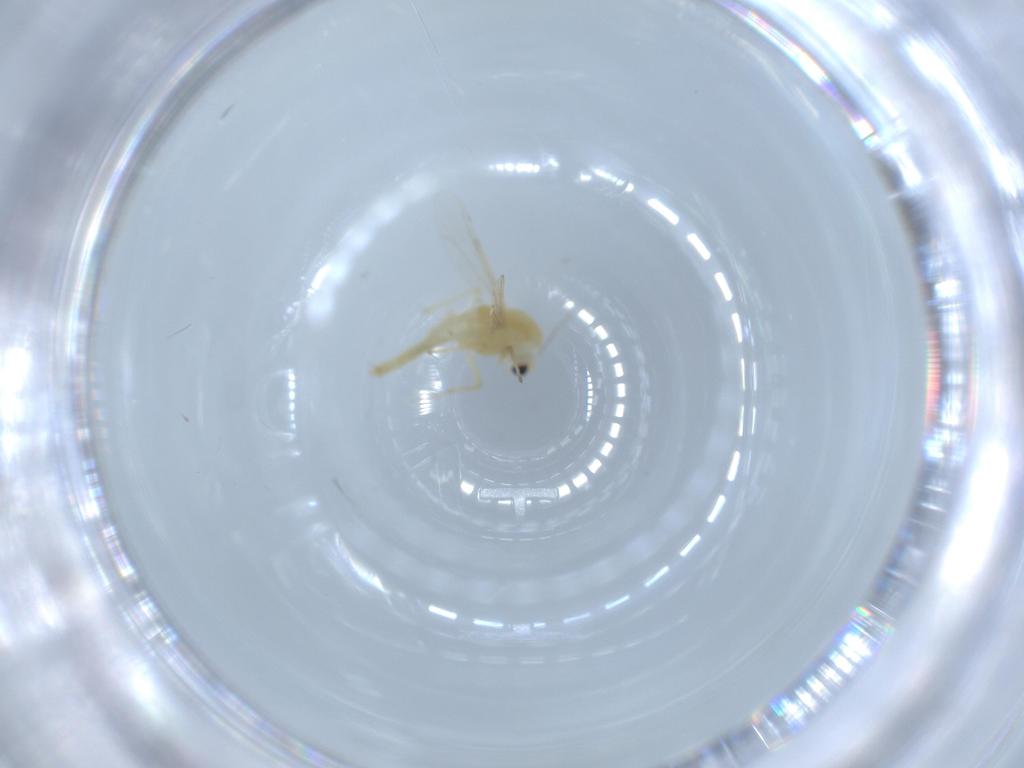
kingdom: Animalia
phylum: Arthropoda
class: Insecta
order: Diptera
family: Chironomidae
